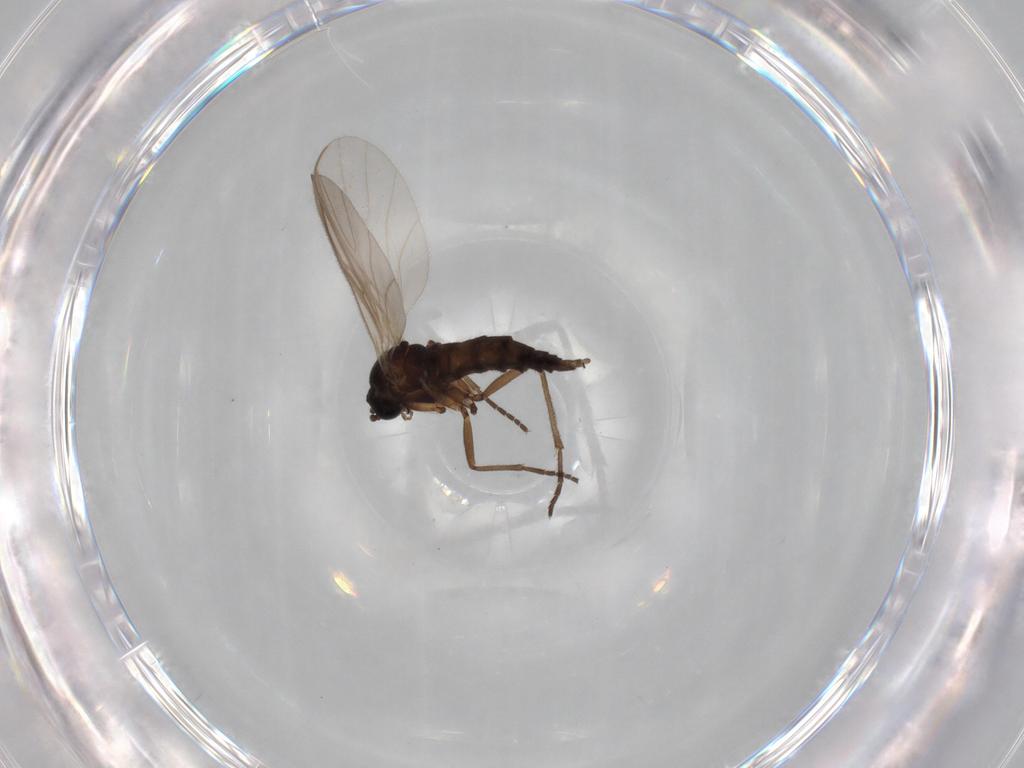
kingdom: Animalia
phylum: Arthropoda
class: Insecta
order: Diptera
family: Sciaridae
